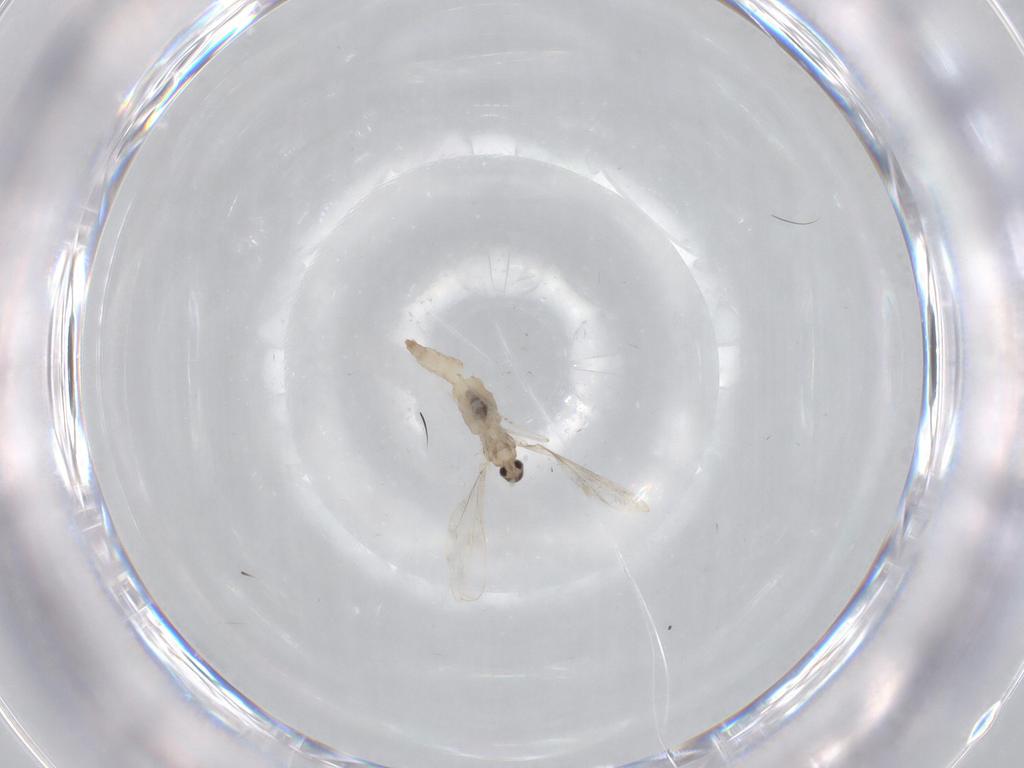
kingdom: Animalia
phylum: Arthropoda
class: Insecta
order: Diptera
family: Cecidomyiidae
